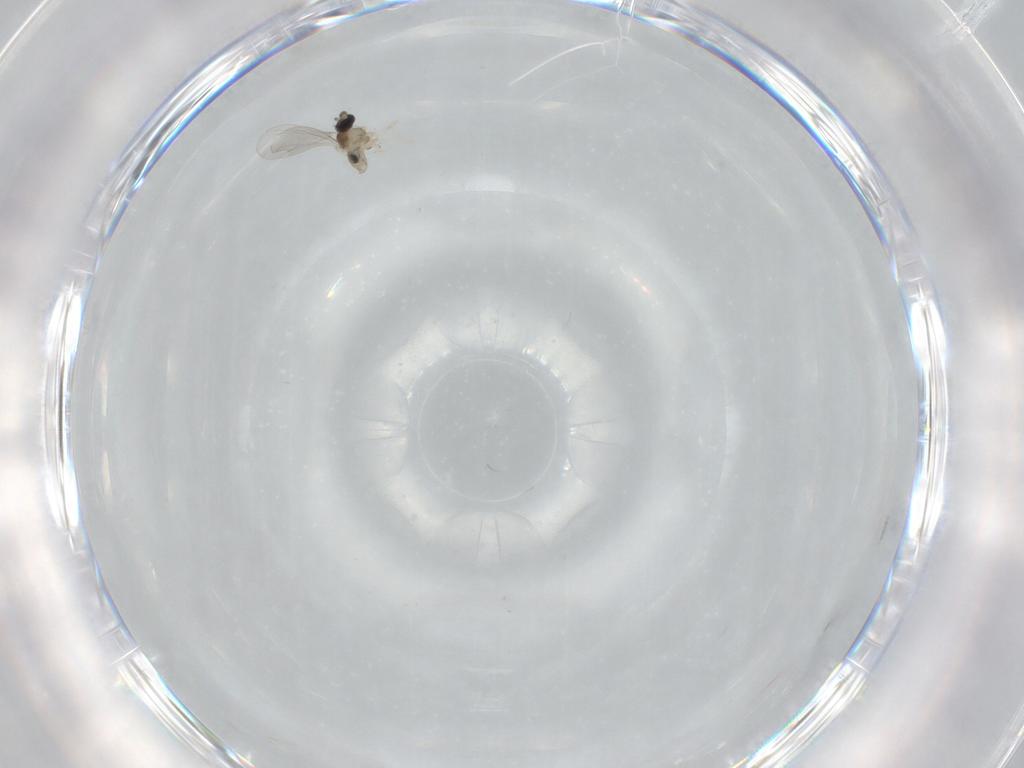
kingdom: Animalia
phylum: Arthropoda
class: Insecta
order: Diptera
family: Cecidomyiidae
